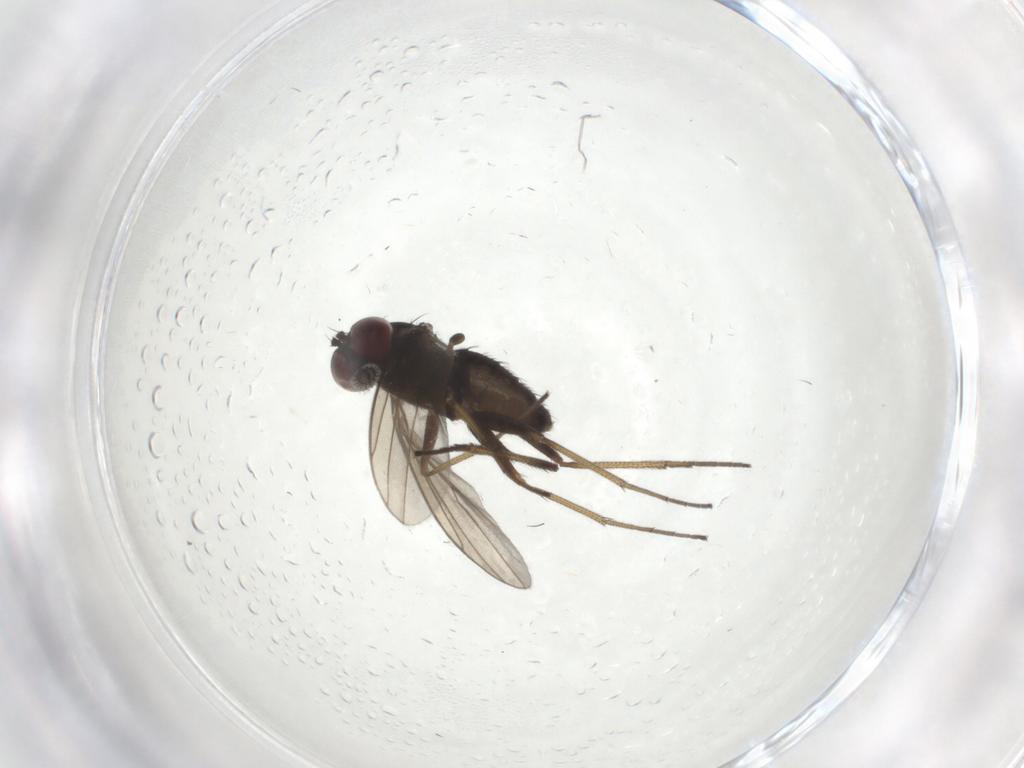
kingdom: Animalia
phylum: Arthropoda
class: Insecta
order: Diptera
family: Dolichopodidae
